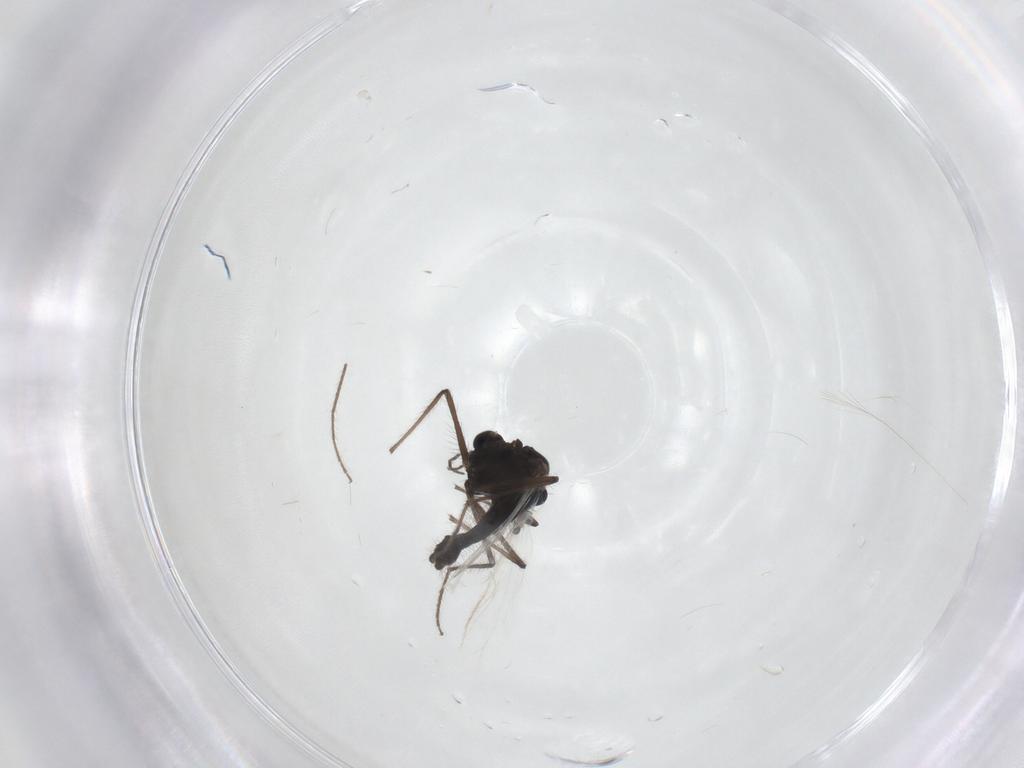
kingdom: Animalia
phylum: Arthropoda
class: Insecta
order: Diptera
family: Chironomidae
